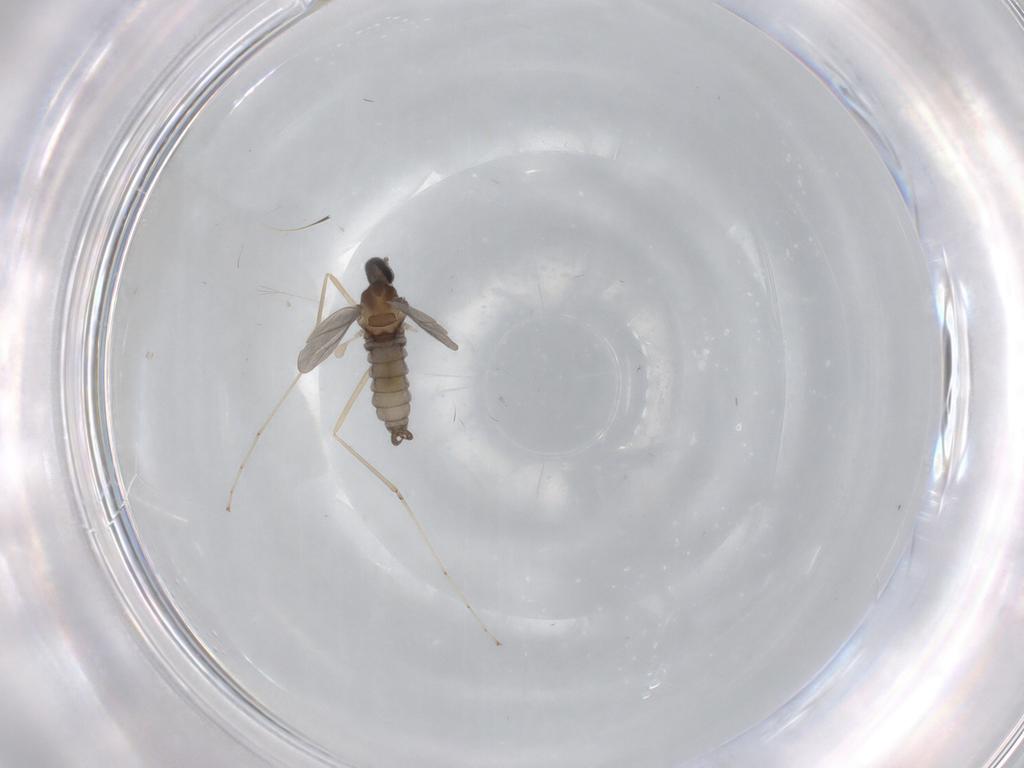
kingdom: Animalia
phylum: Arthropoda
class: Insecta
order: Diptera
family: Cecidomyiidae
